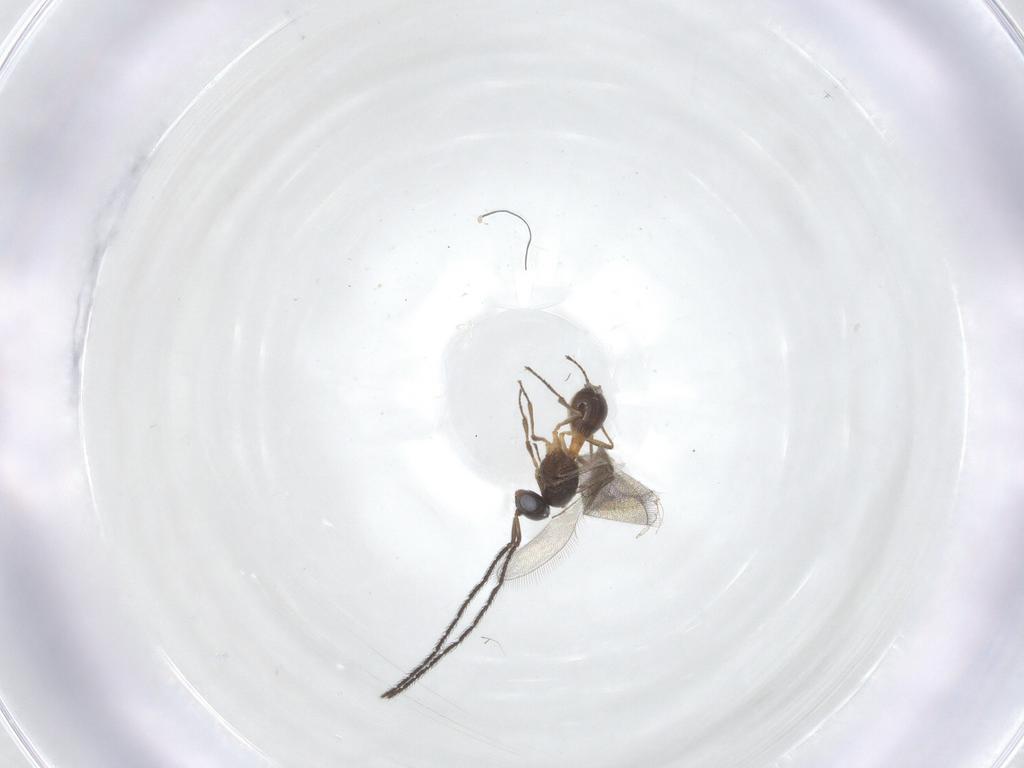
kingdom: Animalia
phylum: Arthropoda
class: Insecta
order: Hymenoptera
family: Scelionidae
